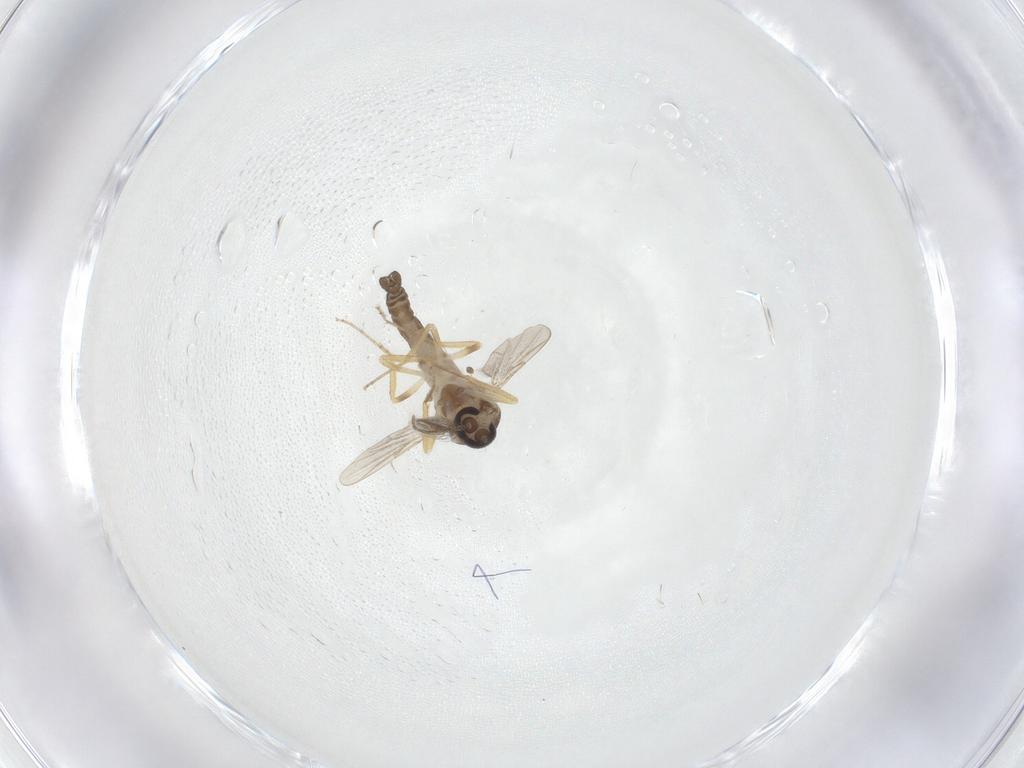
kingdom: Animalia
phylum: Arthropoda
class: Insecta
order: Diptera
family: Ceratopogonidae
